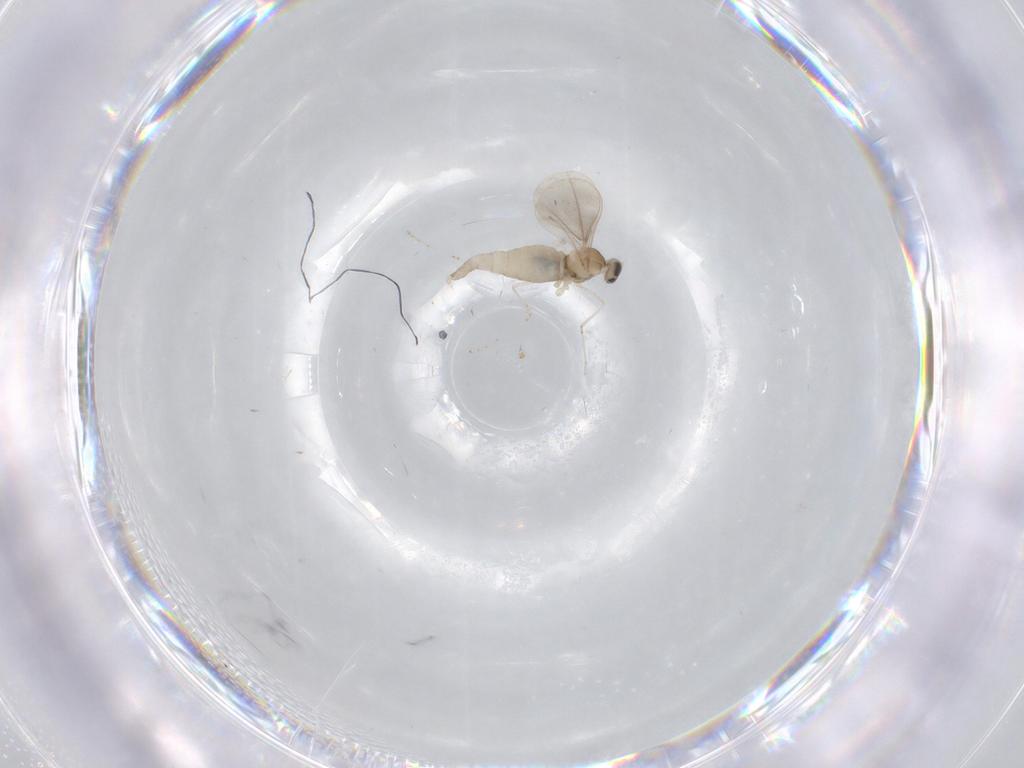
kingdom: Animalia
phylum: Arthropoda
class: Insecta
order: Diptera
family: Cecidomyiidae
